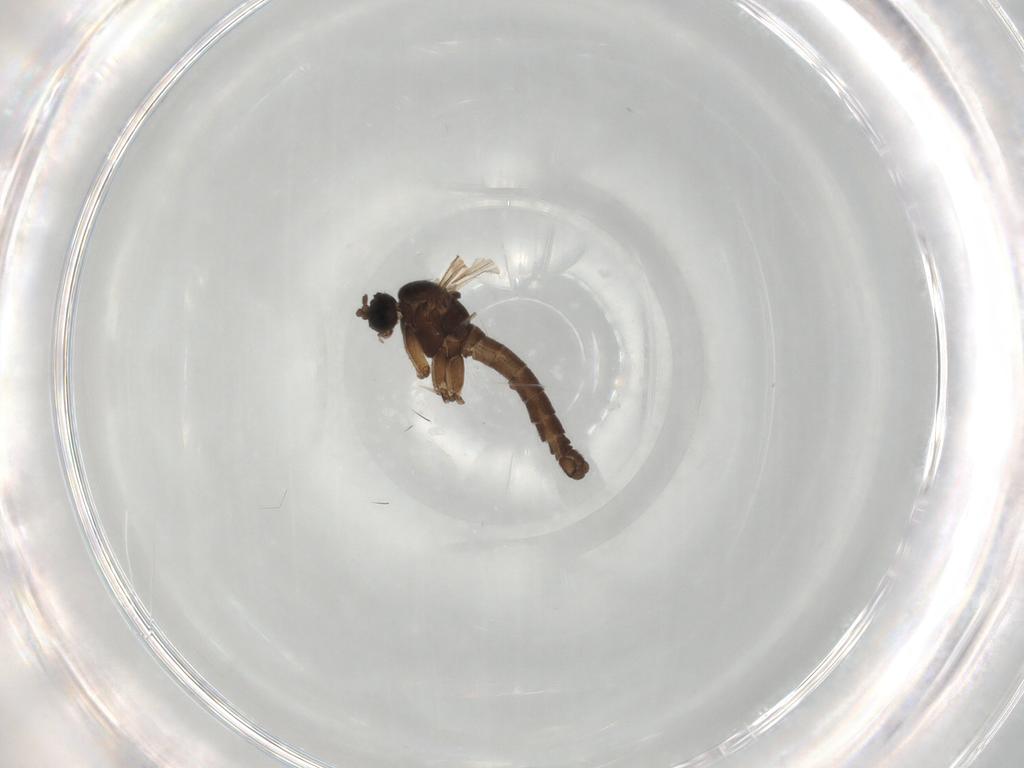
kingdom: Animalia
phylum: Arthropoda
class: Insecta
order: Diptera
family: Sciaridae
